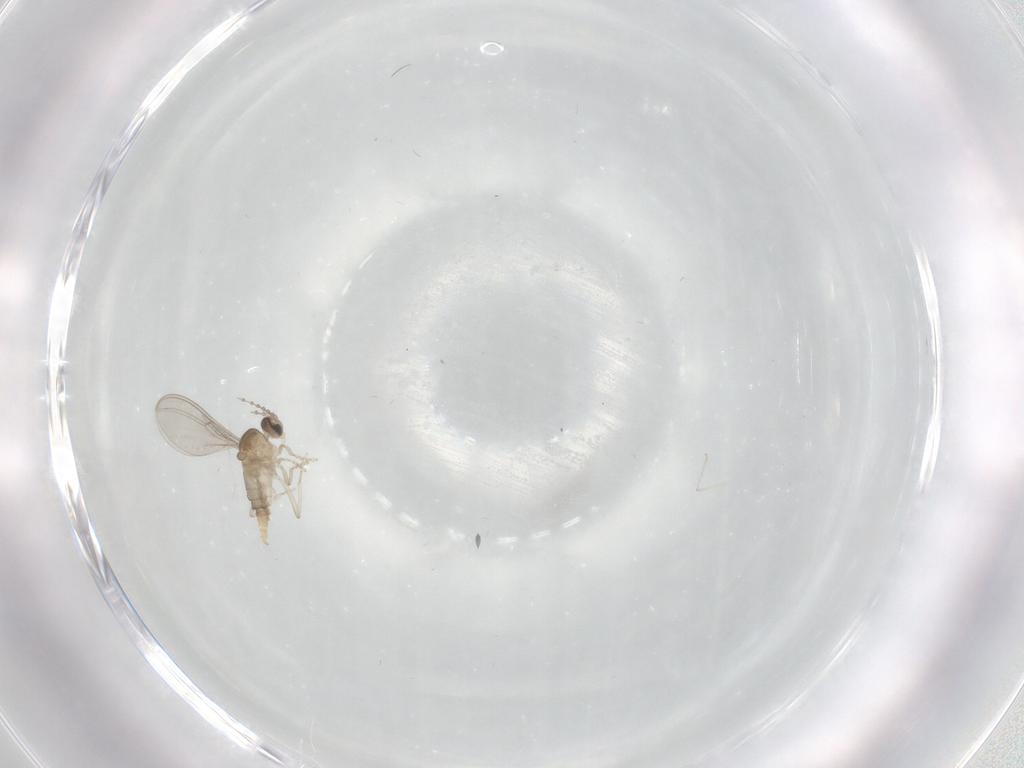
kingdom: Animalia
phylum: Arthropoda
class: Insecta
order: Diptera
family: Cecidomyiidae
